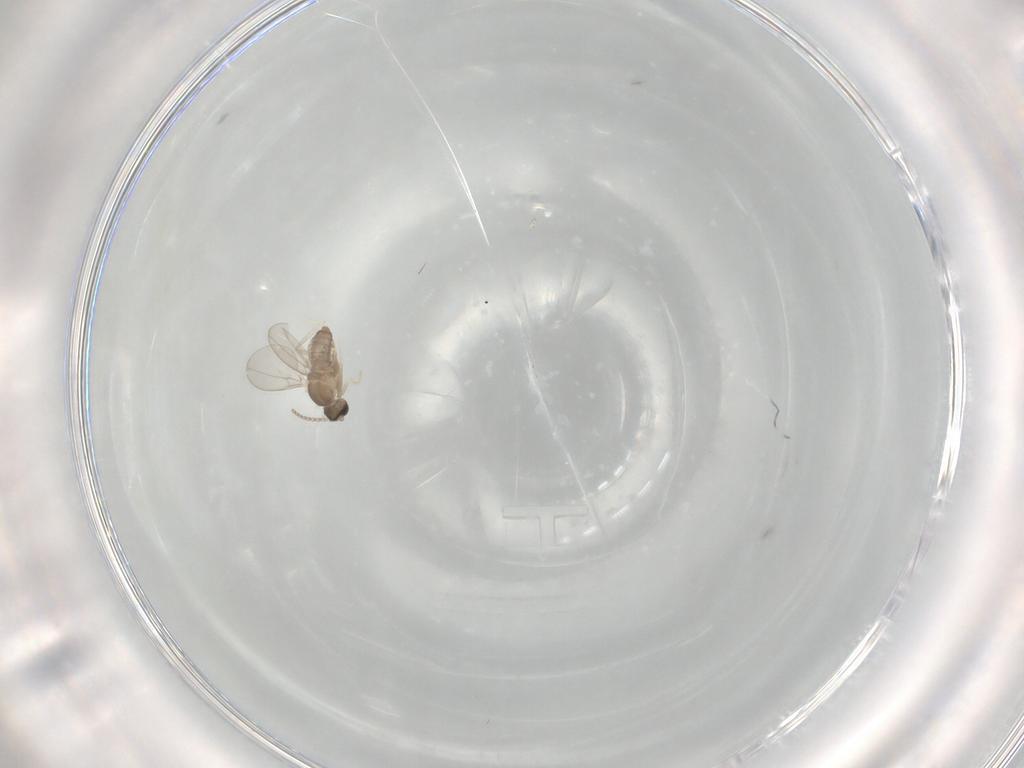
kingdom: Animalia
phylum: Arthropoda
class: Insecta
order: Diptera
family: Cecidomyiidae
